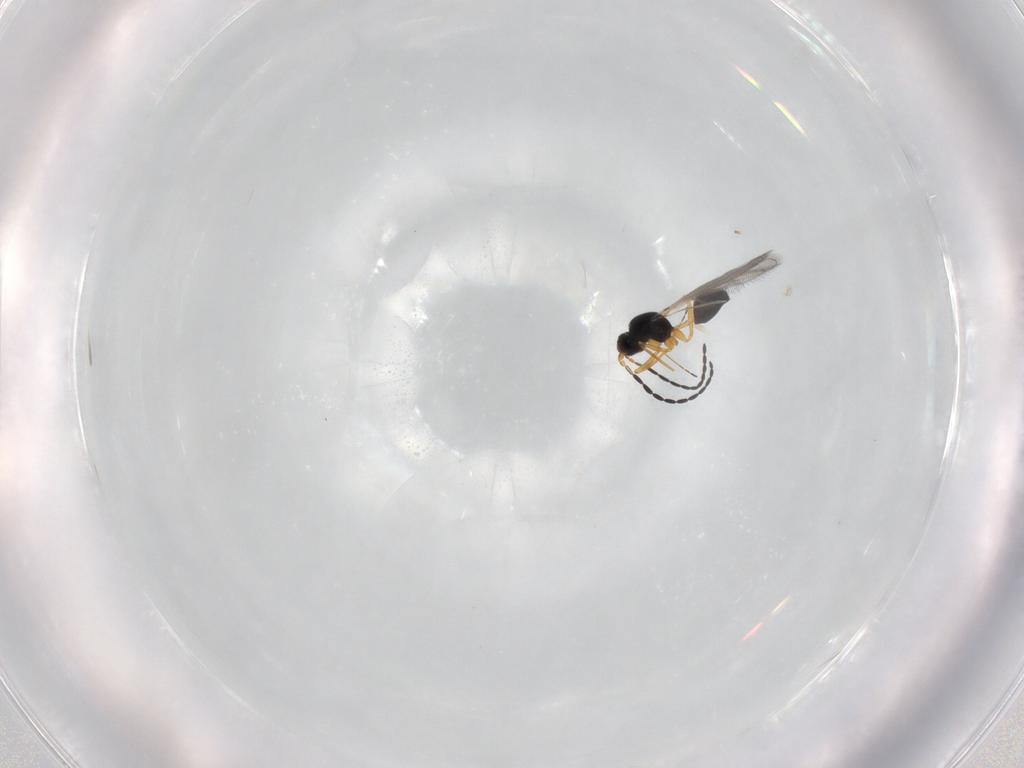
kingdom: Animalia
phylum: Arthropoda
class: Insecta
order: Hymenoptera
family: Mymaridae
